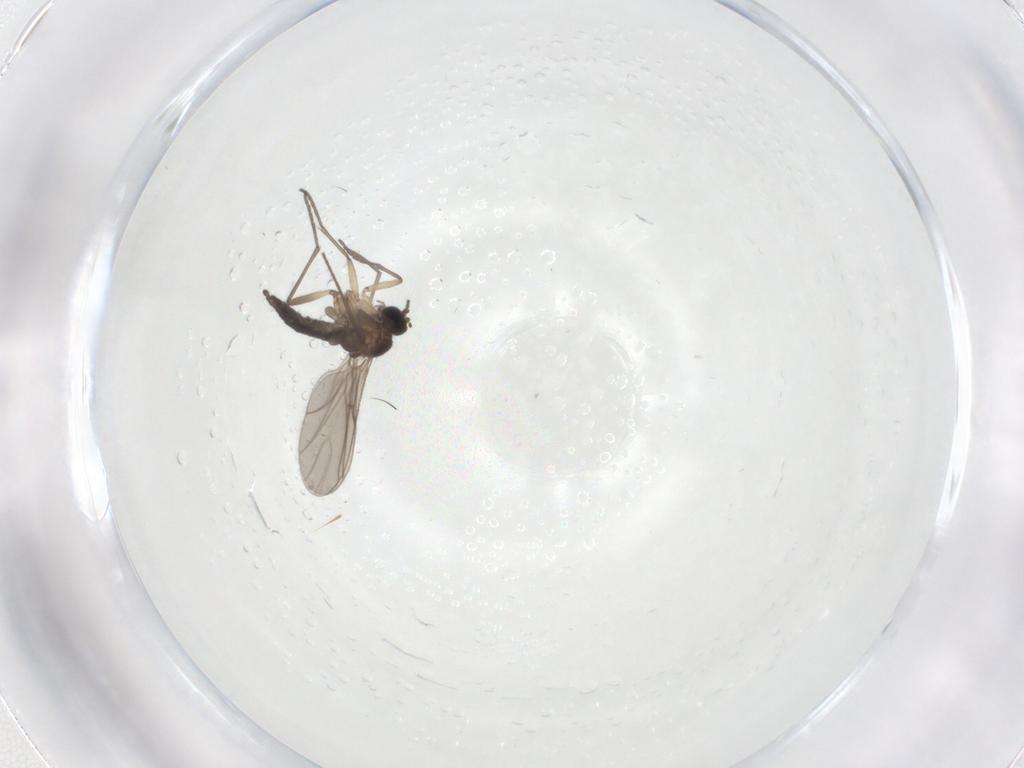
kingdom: Animalia
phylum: Arthropoda
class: Insecta
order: Diptera
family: Sciaridae
